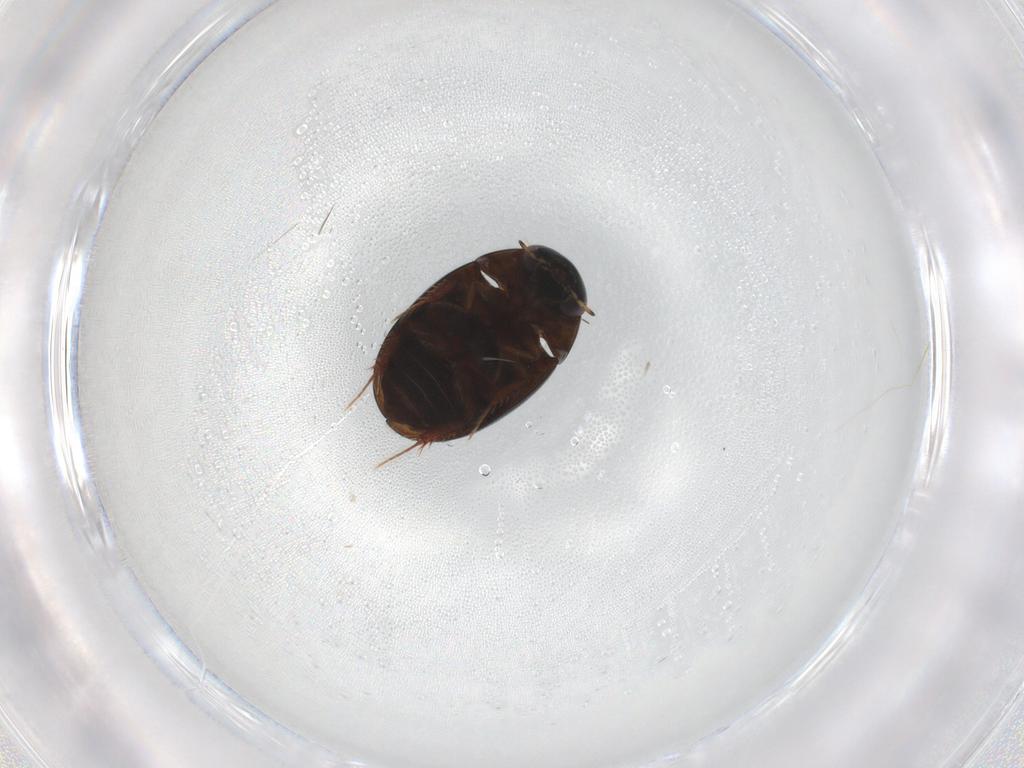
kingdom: Animalia
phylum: Arthropoda
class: Insecta
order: Coleoptera
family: Hydrophilidae
